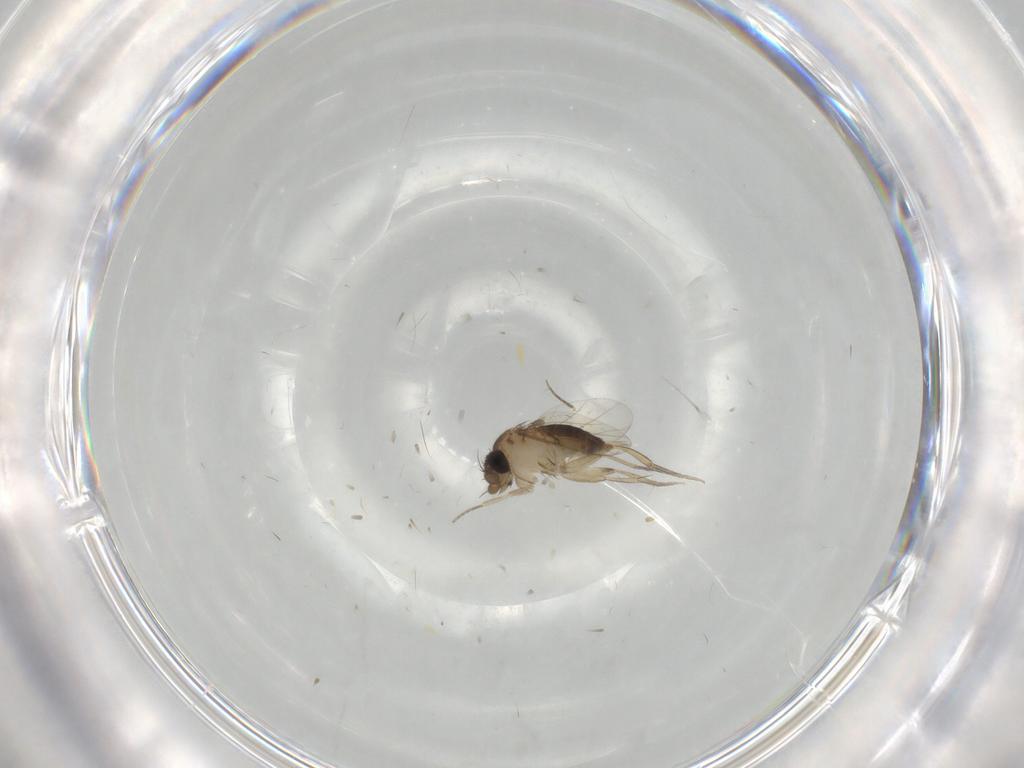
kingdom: Animalia
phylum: Arthropoda
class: Insecta
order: Diptera
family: Phoridae
